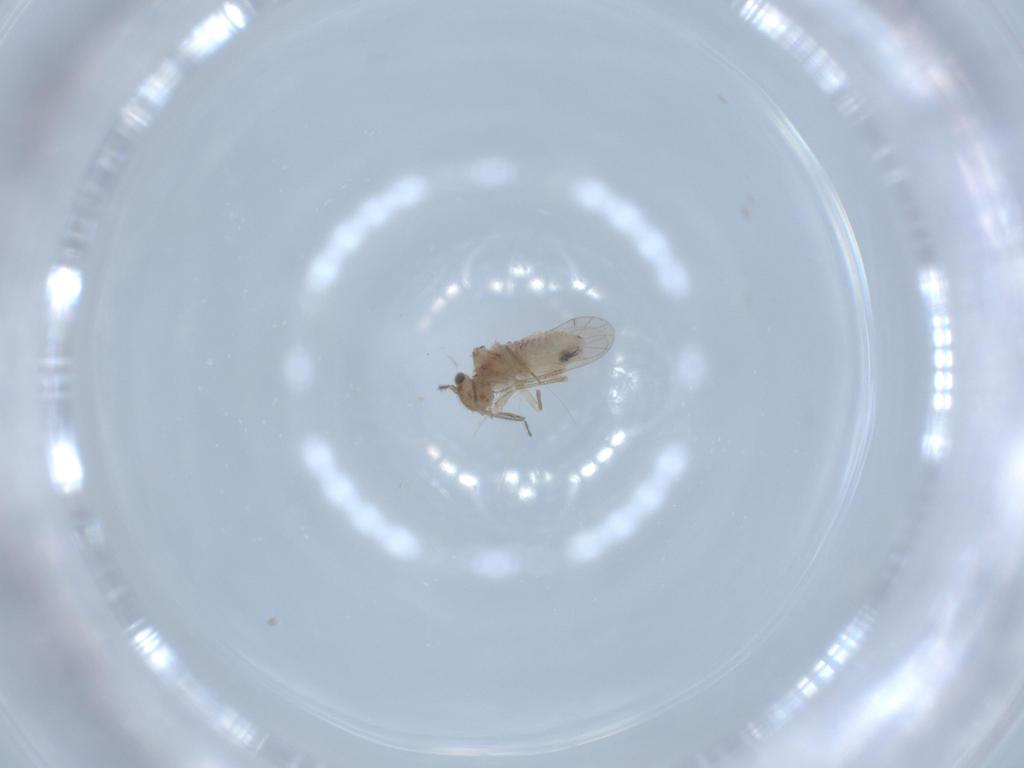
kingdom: Animalia
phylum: Arthropoda
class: Insecta
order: Psocodea
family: Ectopsocidae
